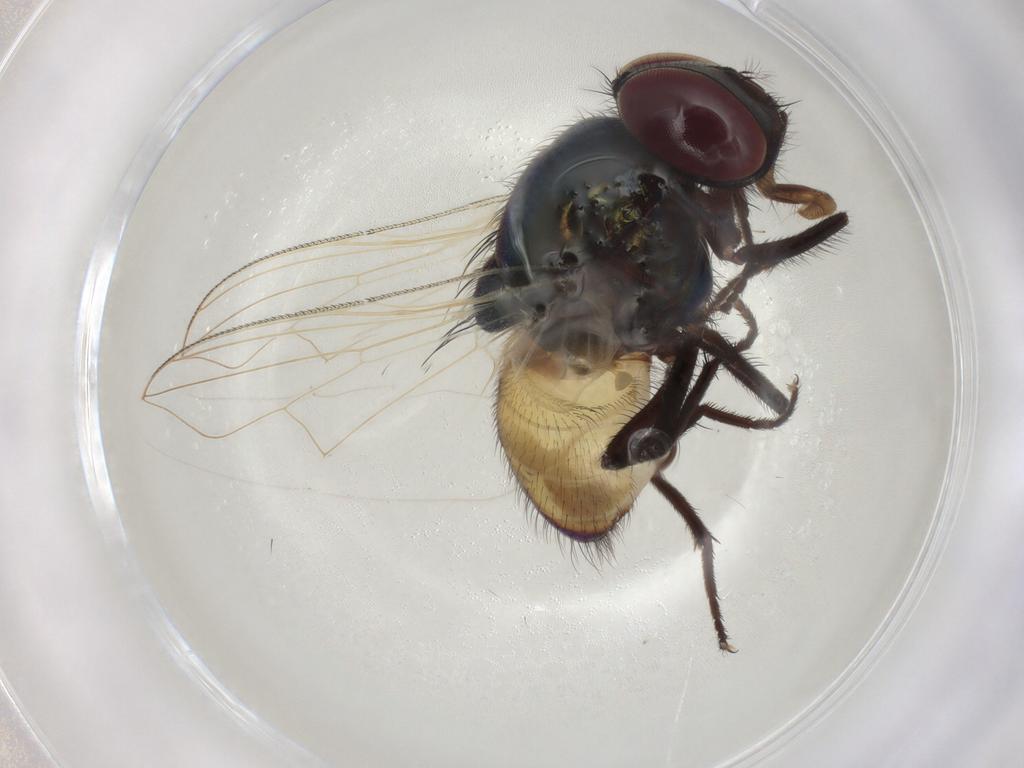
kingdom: Animalia
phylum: Arthropoda
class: Insecta
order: Diptera
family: Muscidae
